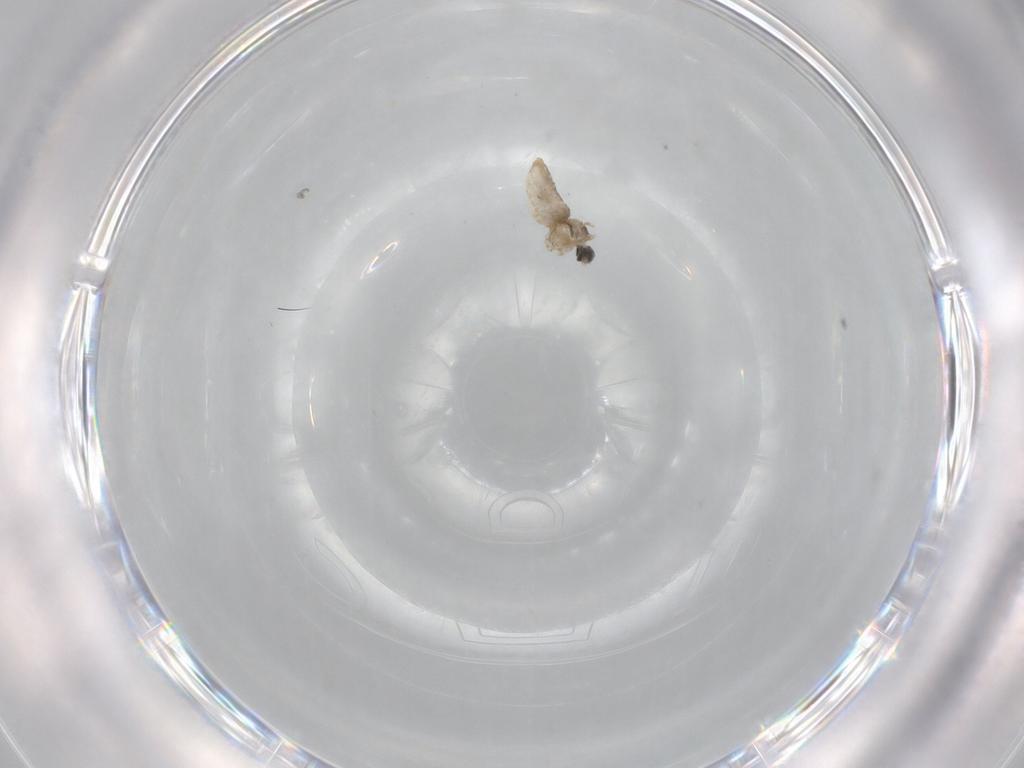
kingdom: Animalia
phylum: Arthropoda
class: Insecta
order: Diptera
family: Cecidomyiidae
